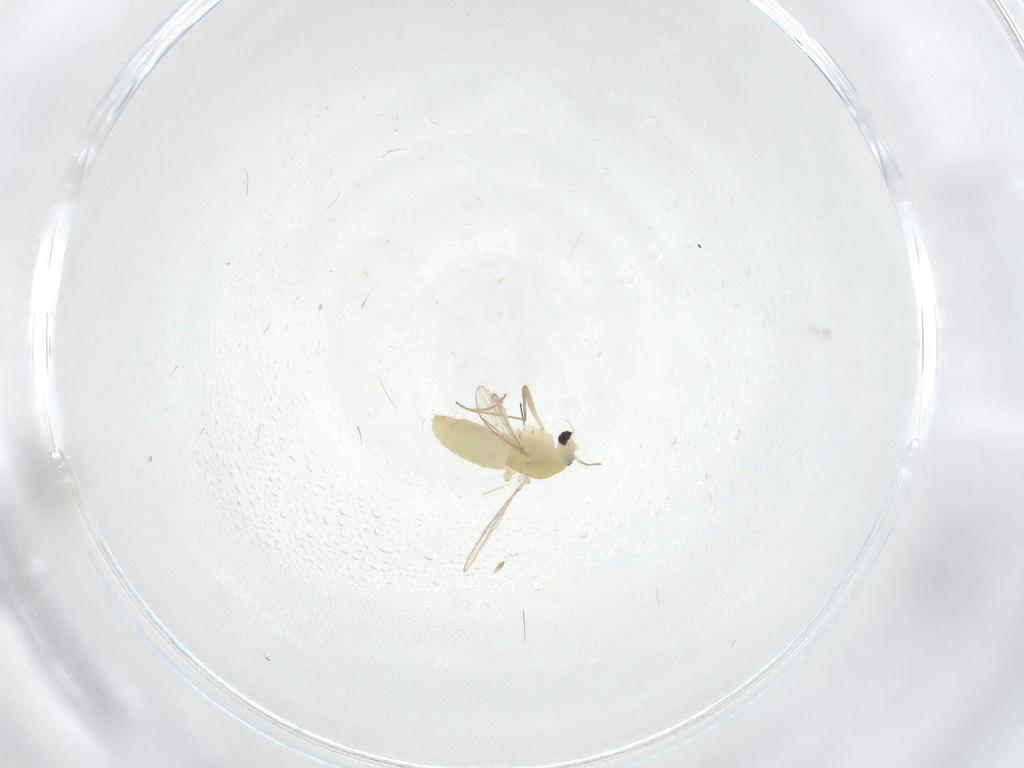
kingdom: Animalia
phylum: Arthropoda
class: Insecta
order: Diptera
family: Chironomidae
